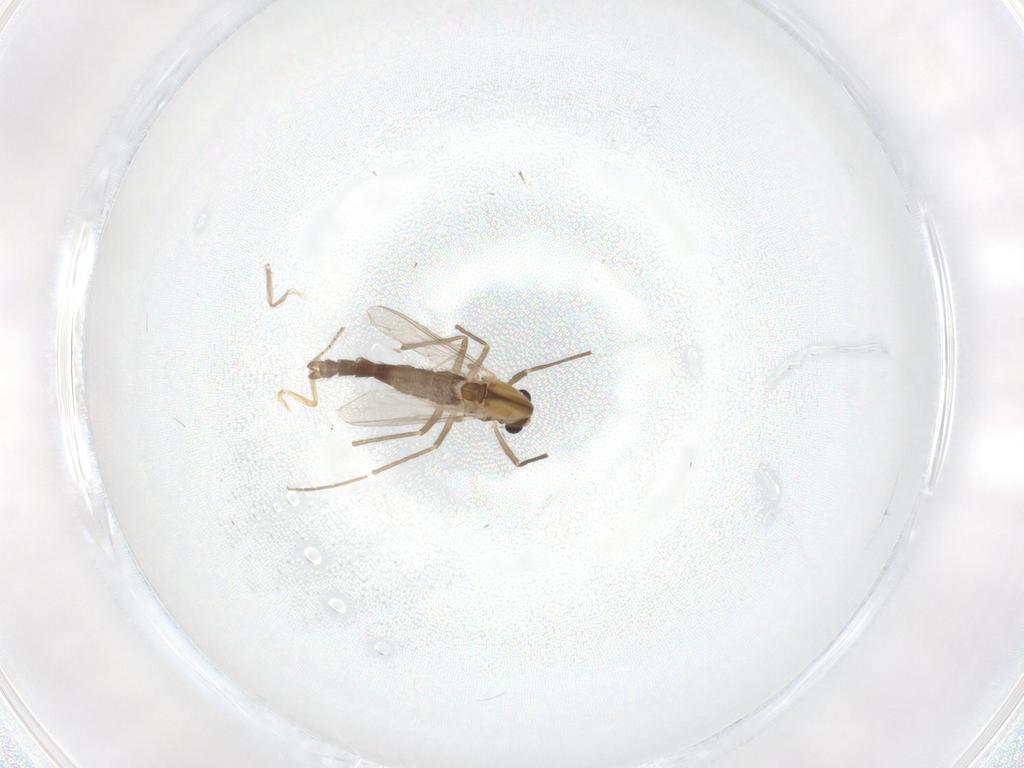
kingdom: Animalia
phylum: Arthropoda
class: Insecta
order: Diptera
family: Chironomidae
